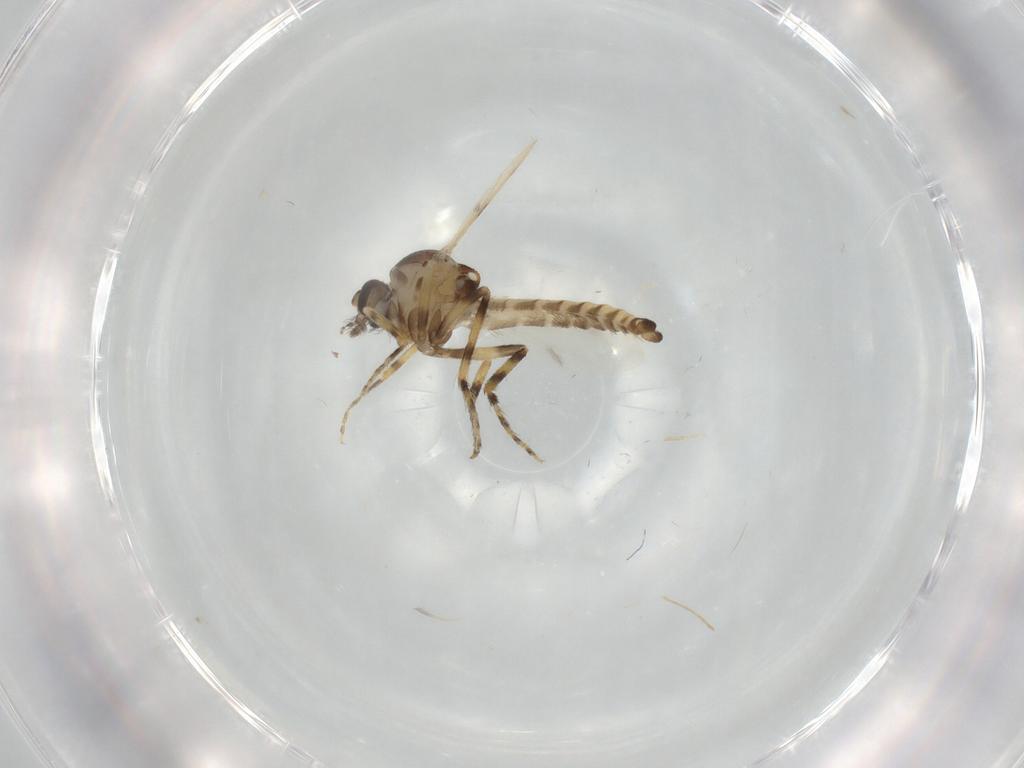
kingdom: Animalia
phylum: Arthropoda
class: Insecta
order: Diptera
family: Ceratopogonidae
